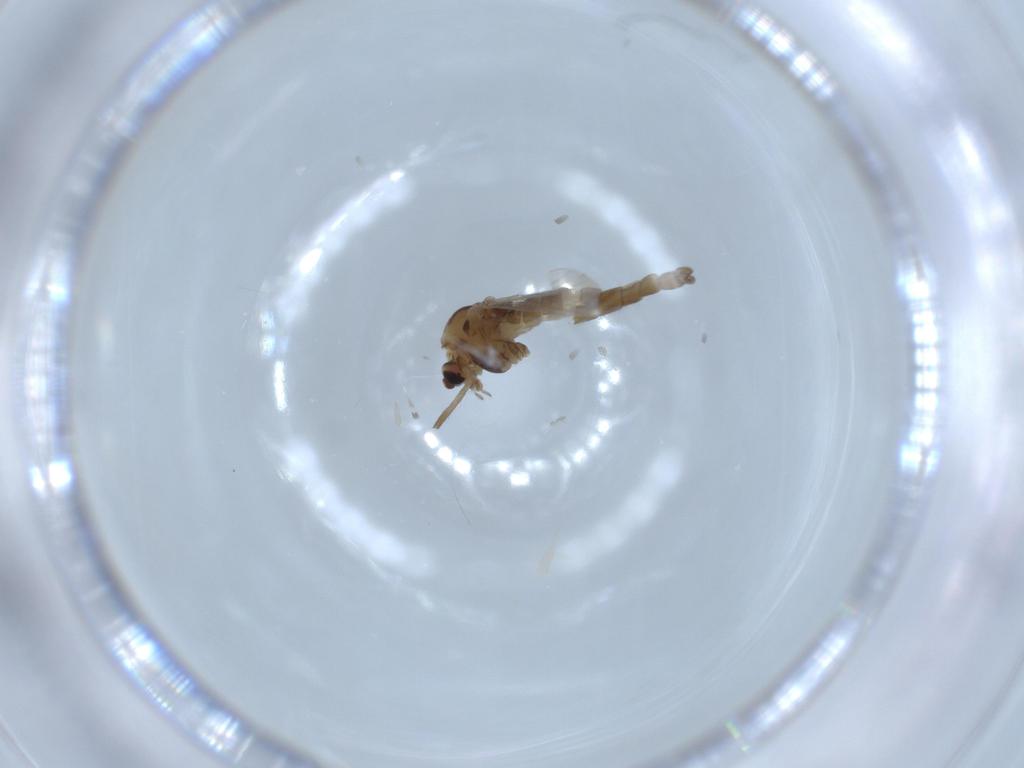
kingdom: Animalia
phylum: Arthropoda
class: Insecta
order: Diptera
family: Chironomidae
